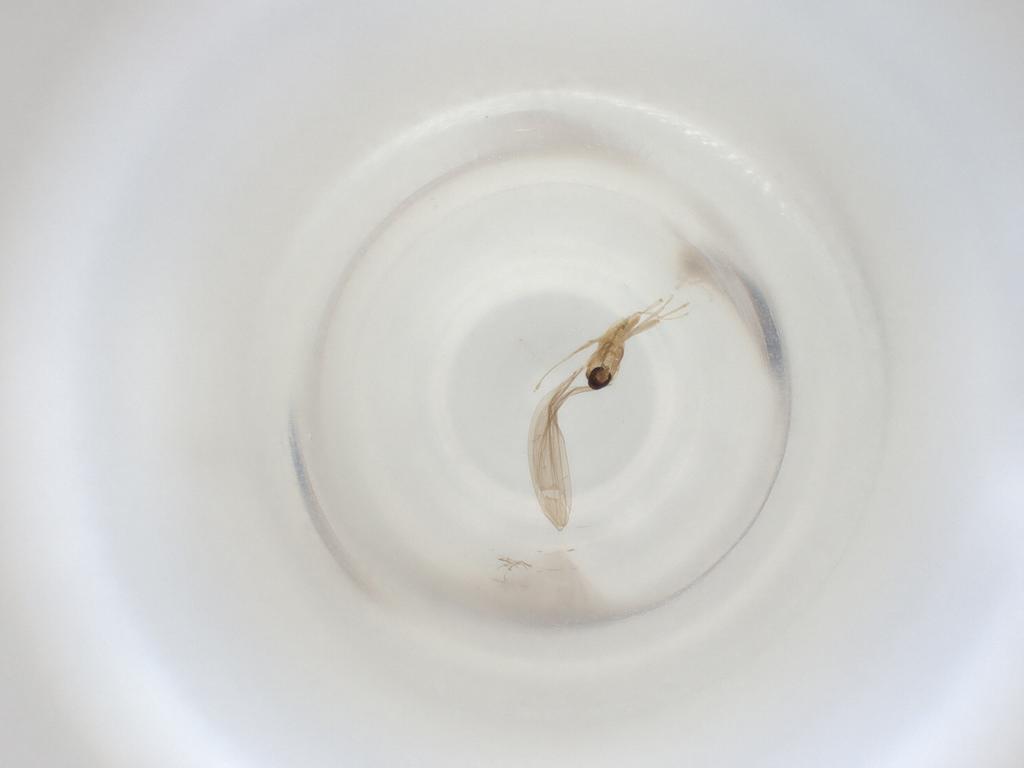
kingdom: Animalia
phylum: Arthropoda
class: Insecta
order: Diptera
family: Cecidomyiidae
